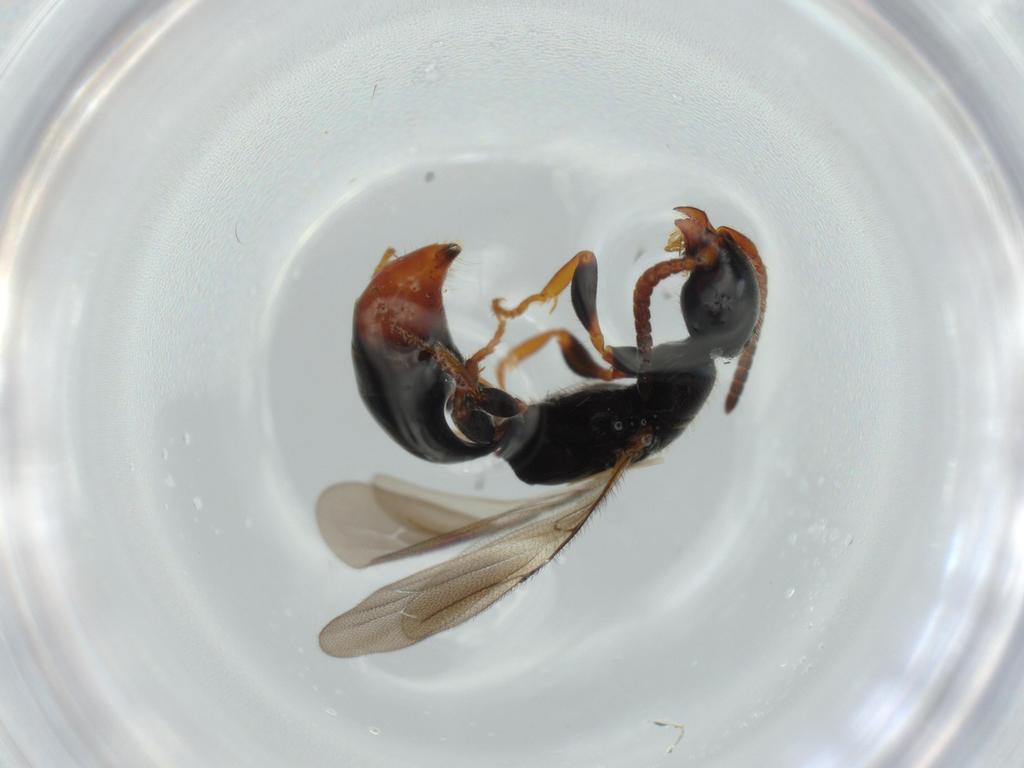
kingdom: Animalia
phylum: Arthropoda
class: Insecta
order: Hymenoptera
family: Bethylidae
